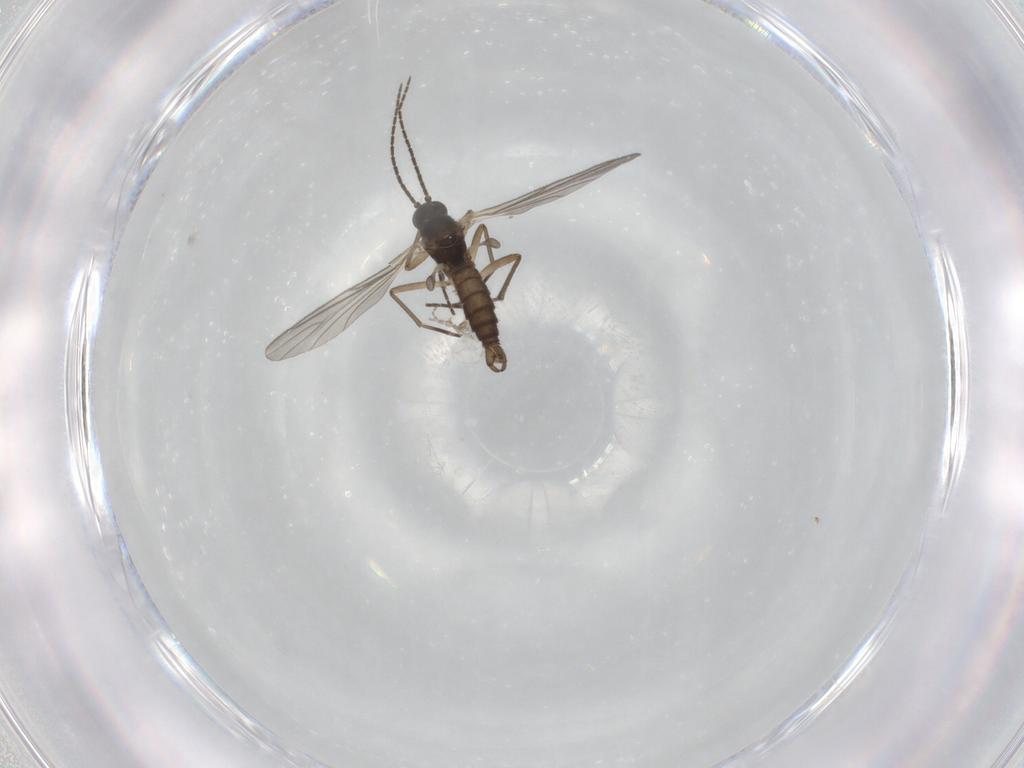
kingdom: Animalia
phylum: Arthropoda
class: Insecta
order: Diptera
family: Sciaridae
